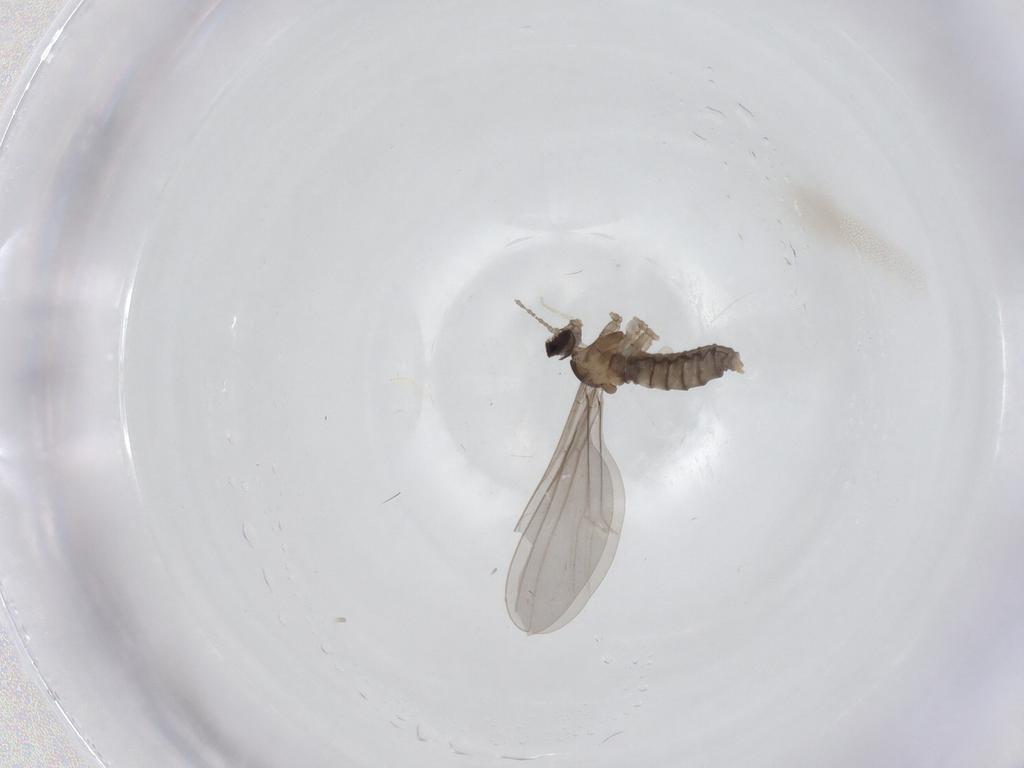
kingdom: Animalia
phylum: Arthropoda
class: Insecta
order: Diptera
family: Cecidomyiidae
